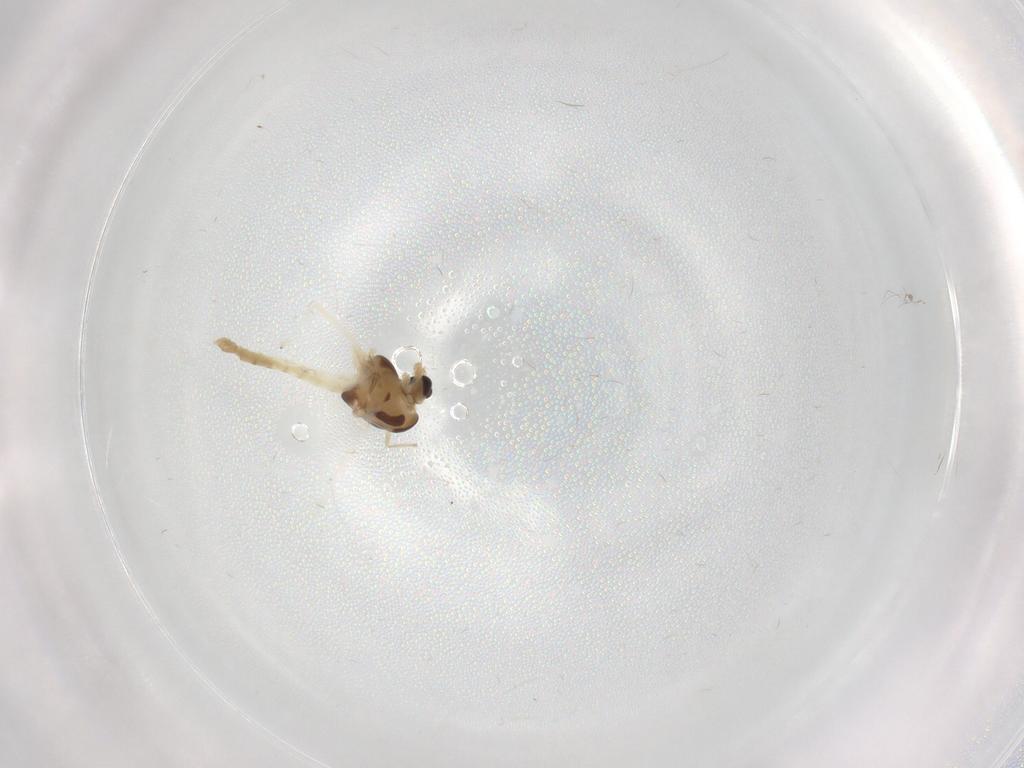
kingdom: Animalia
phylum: Arthropoda
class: Insecta
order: Diptera
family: Chironomidae
